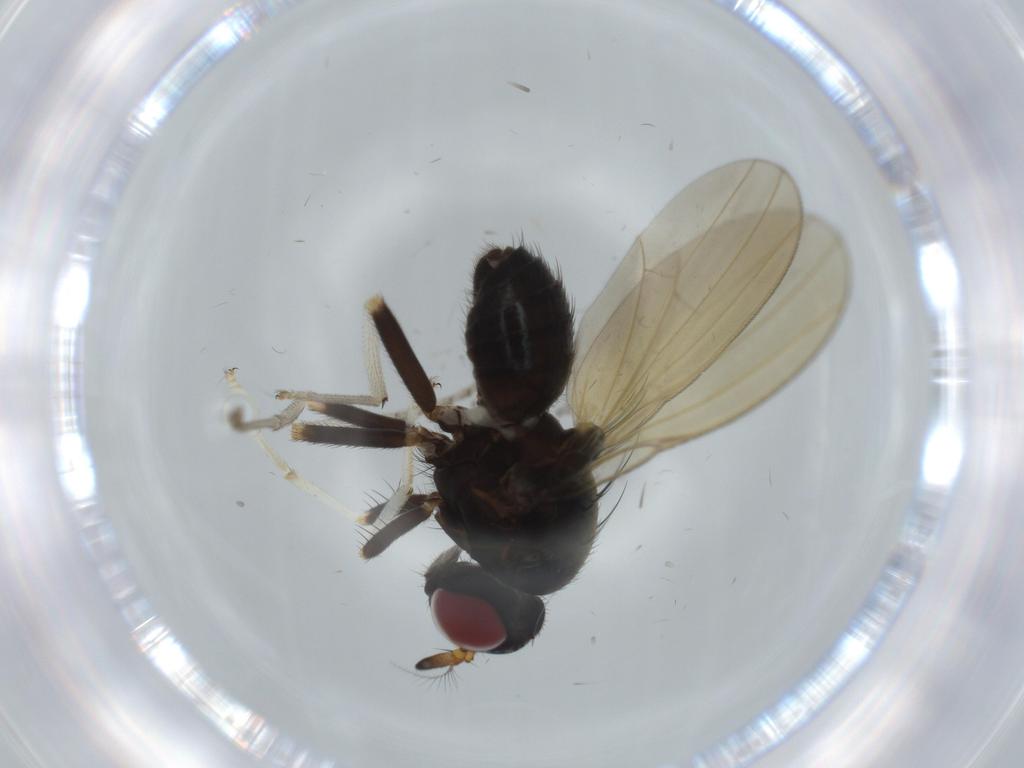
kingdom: Animalia
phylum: Arthropoda
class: Insecta
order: Diptera
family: Lauxaniidae
